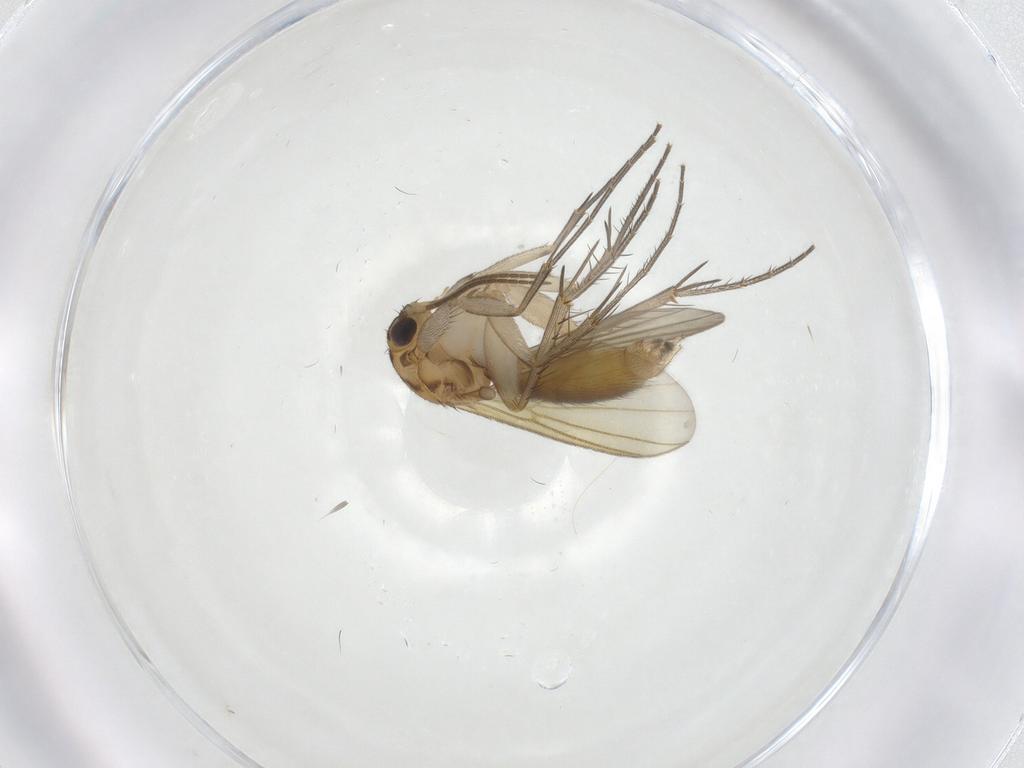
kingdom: Animalia
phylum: Arthropoda
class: Insecta
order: Diptera
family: Mycetophilidae
